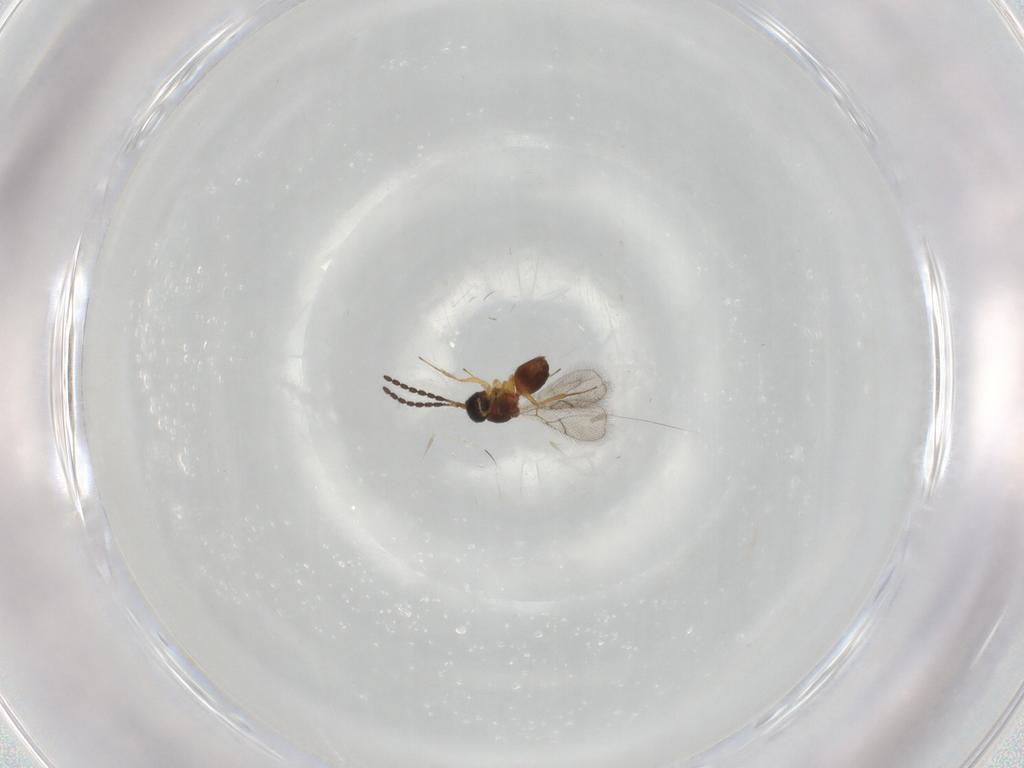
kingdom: Animalia
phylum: Arthropoda
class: Insecta
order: Hymenoptera
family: Figitidae
